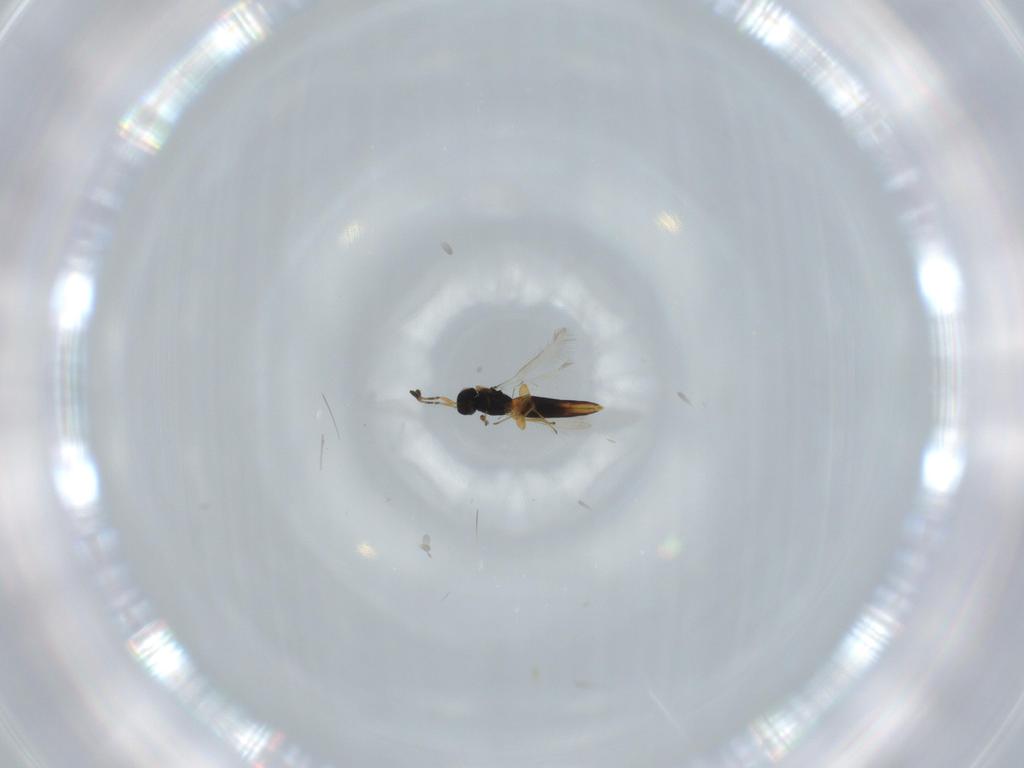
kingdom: Animalia
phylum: Arthropoda
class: Insecta
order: Hymenoptera
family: Scelionidae
